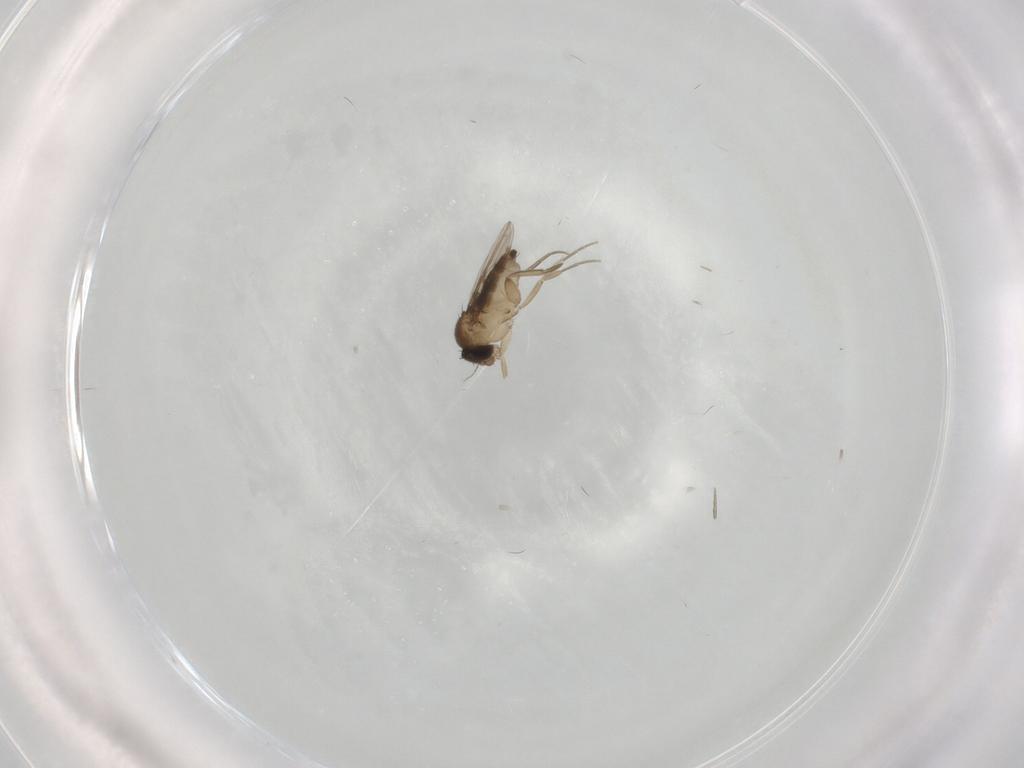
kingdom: Animalia
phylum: Arthropoda
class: Insecta
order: Diptera
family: Phoridae
